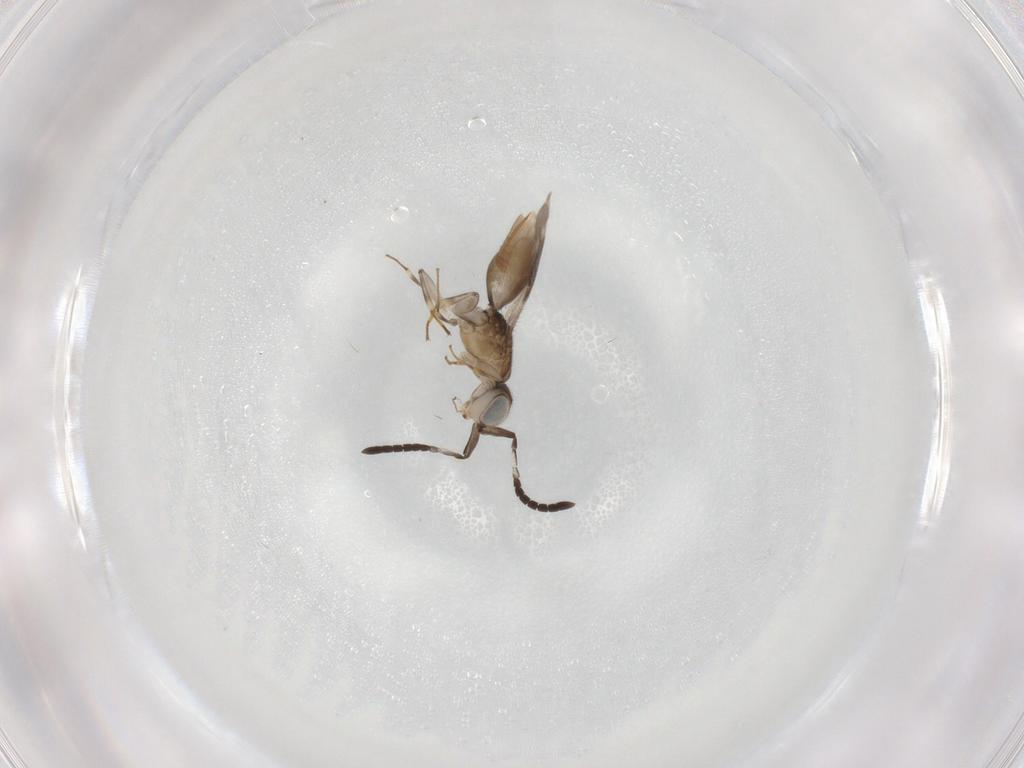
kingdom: Animalia
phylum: Arthropoda
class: Insecta
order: Hymenoptera
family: Megaspilidae
